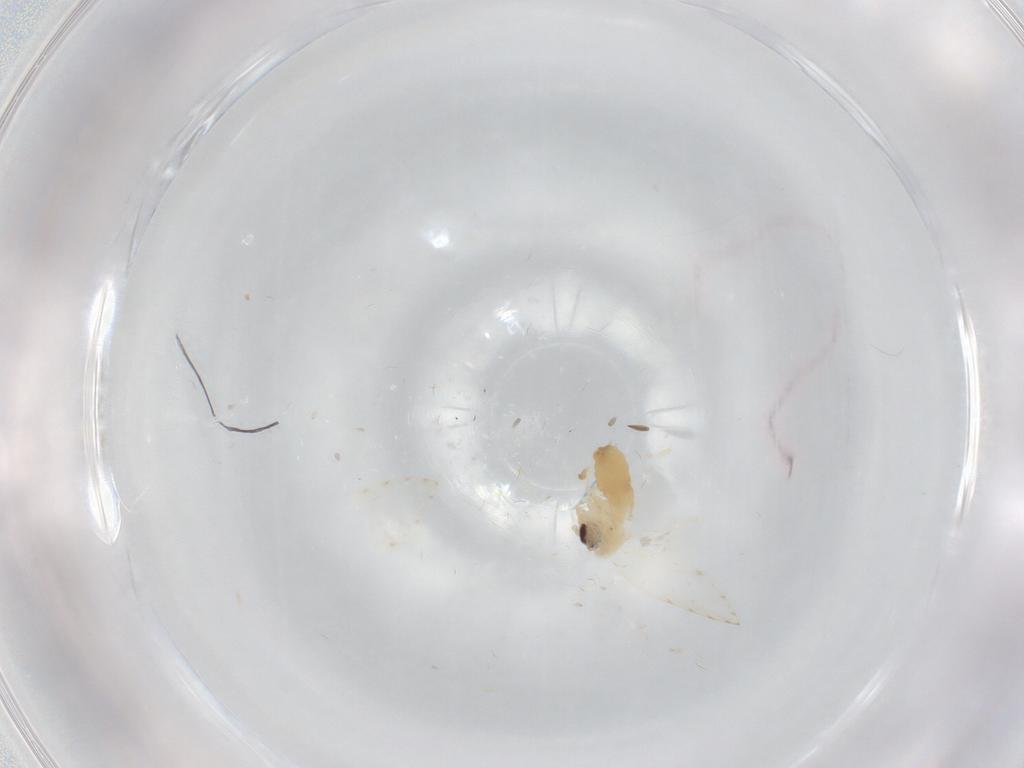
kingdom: Animalia
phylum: Arthropoda
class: Insecta
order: Diptera
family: Psychodidae
